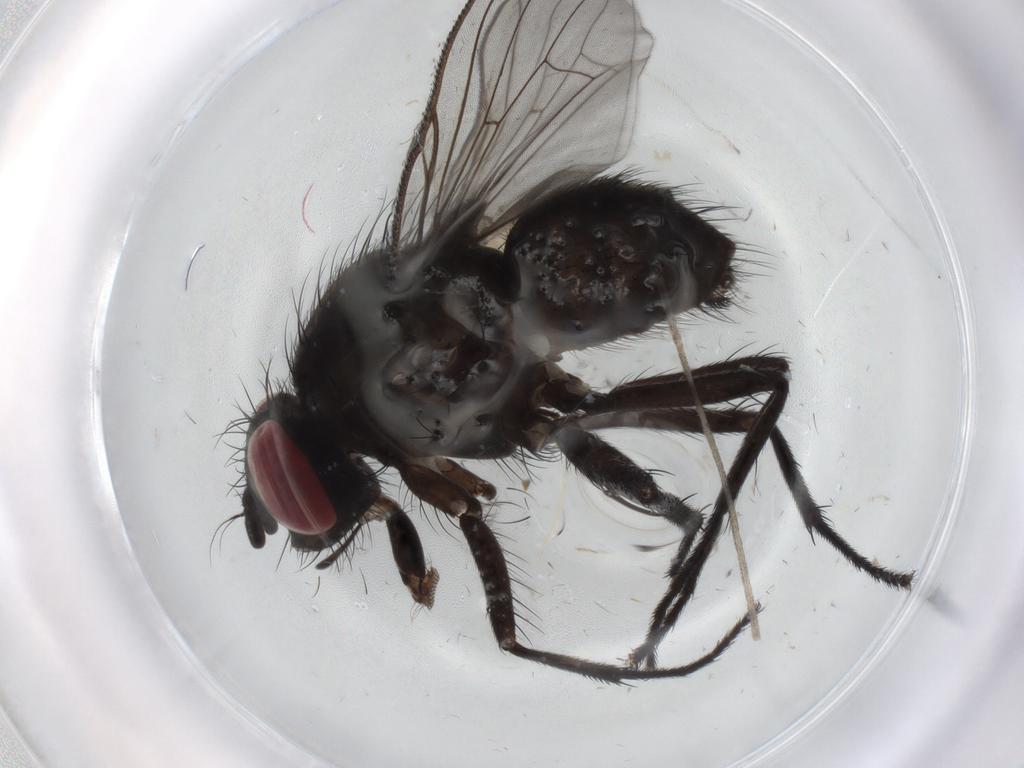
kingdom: Animalia
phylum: Arthropoda
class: Insecta
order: Diptera
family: Muscidae
